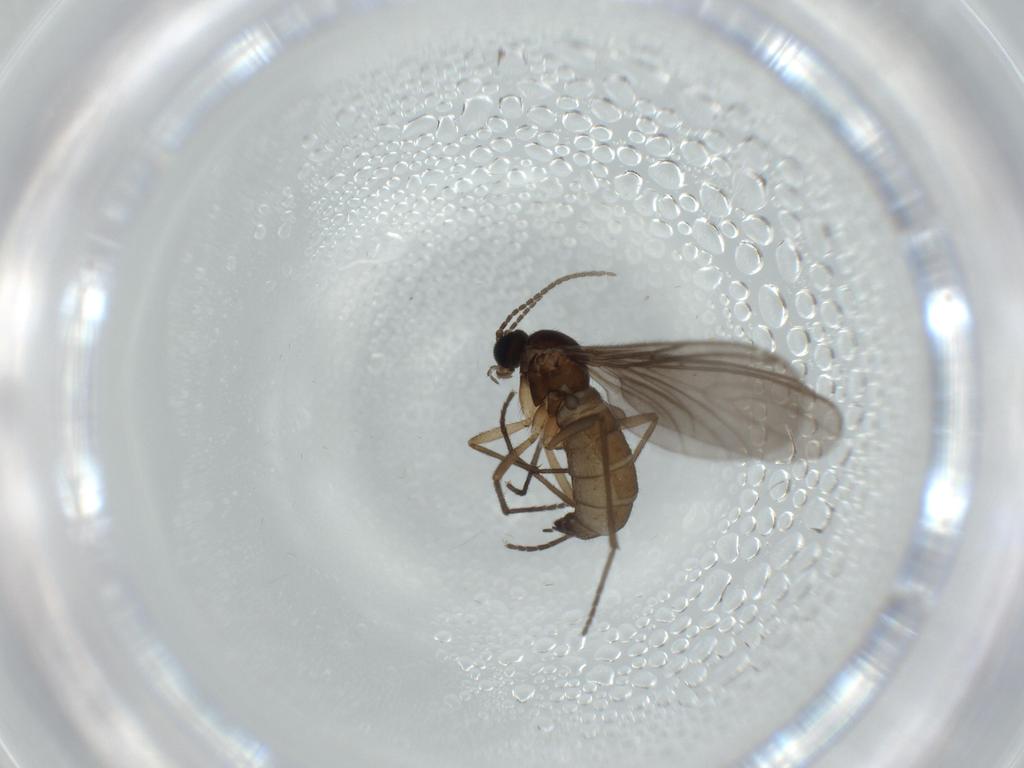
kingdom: Animalia
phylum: Arthropoda
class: Insecta
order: Diptera
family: Sciaridae
